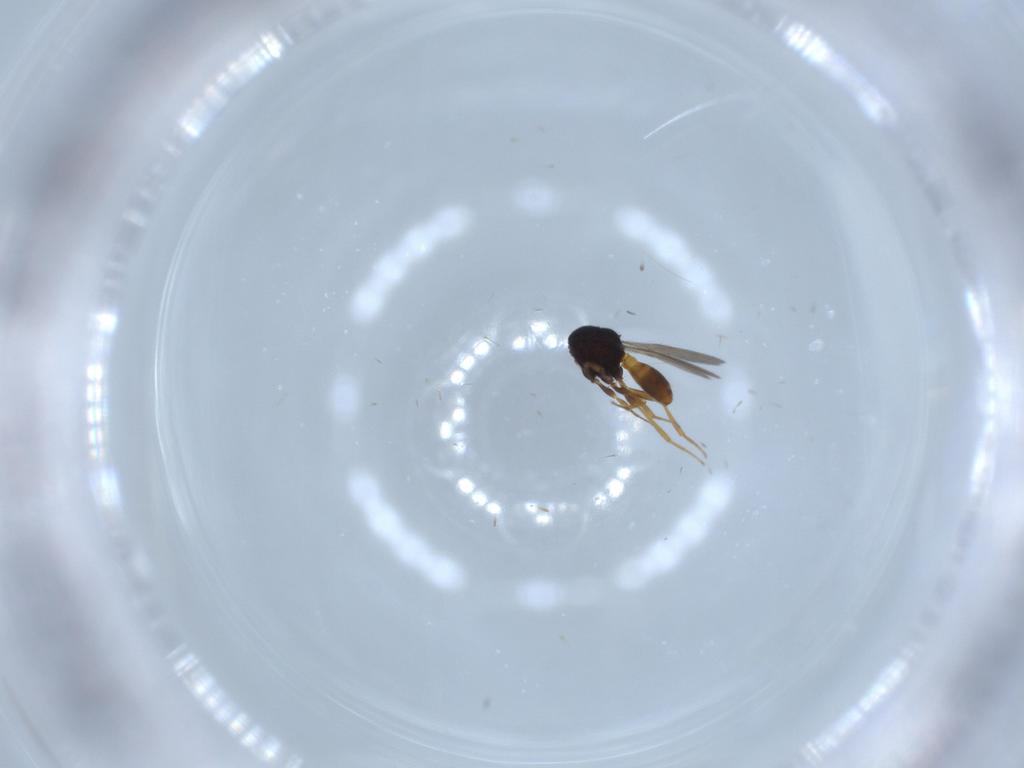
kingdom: Animalia
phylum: Arthropoda
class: Insecta
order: Hymenoptera
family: Scelionidae
